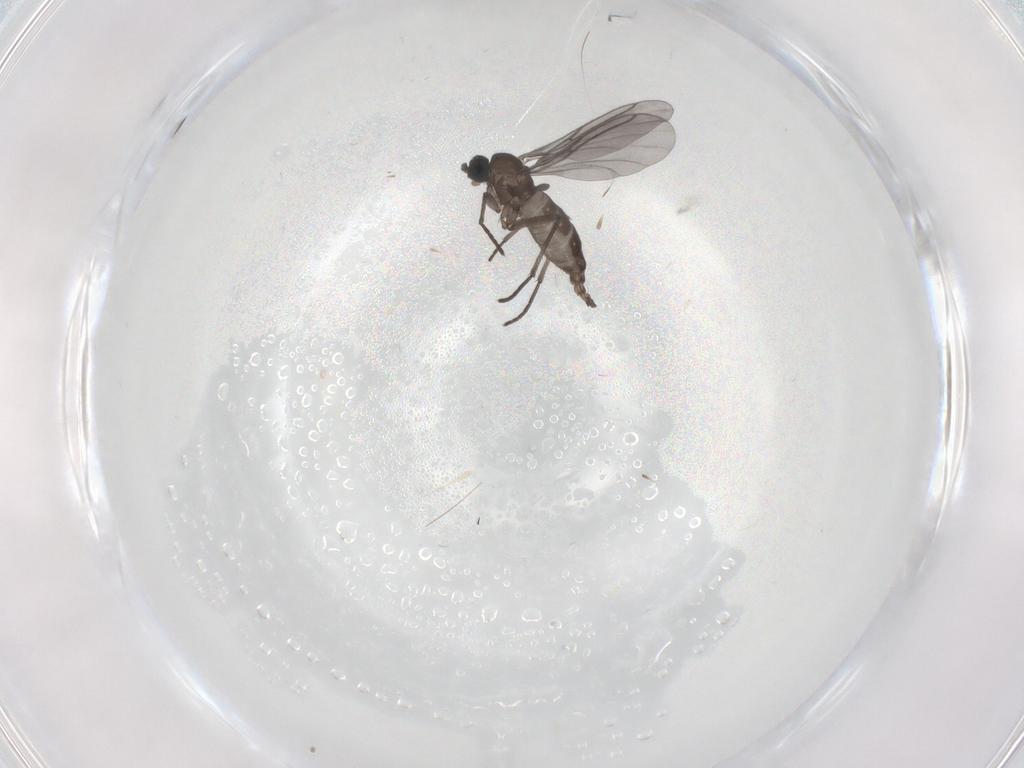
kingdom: Animalia
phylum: Arthropoda
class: Insecta
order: Diptera
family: Sciaridae
